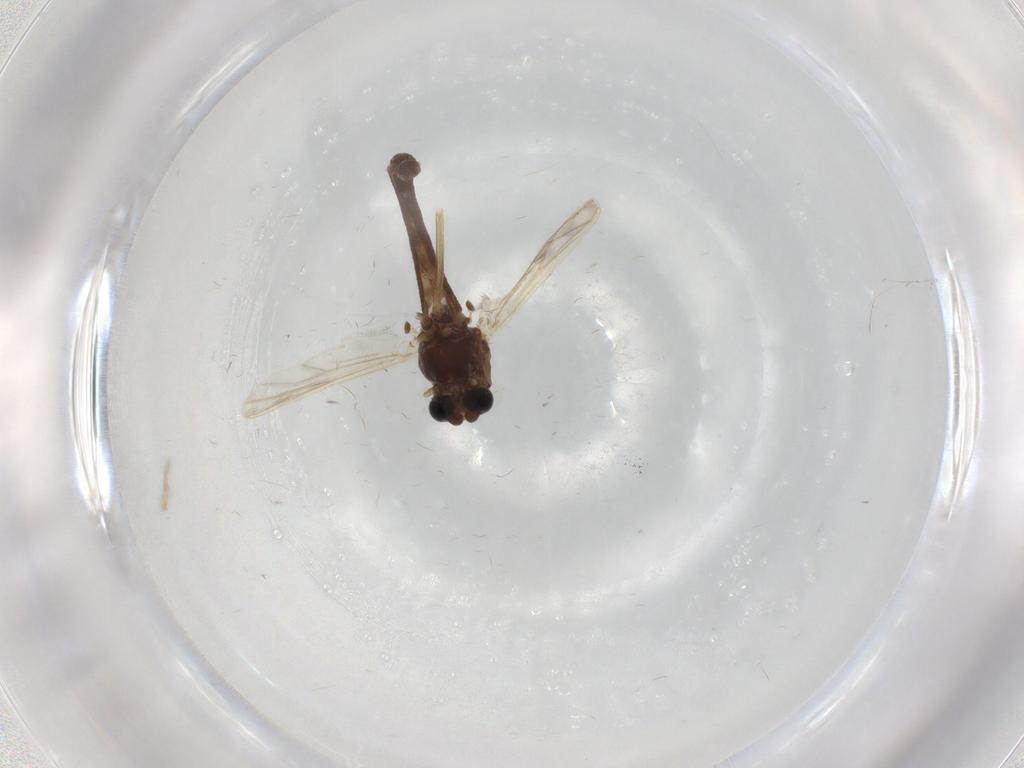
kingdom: Animalia
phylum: Arthropoda
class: Insecta
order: Diptera
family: Chironomidae
